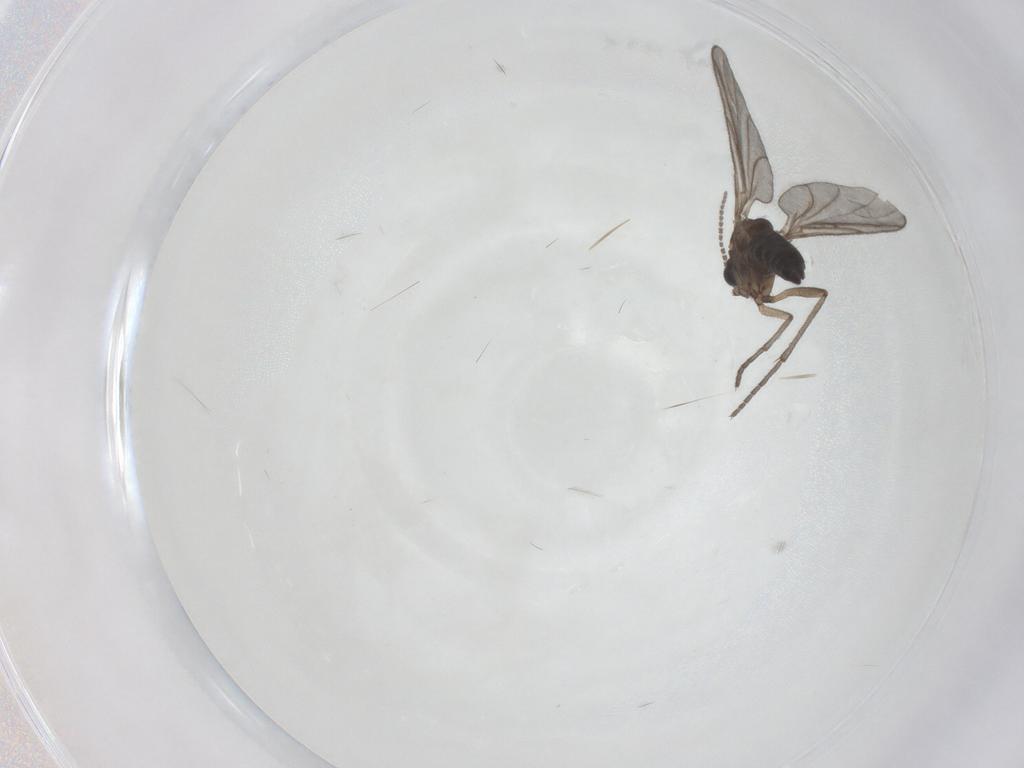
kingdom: Animalia
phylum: Arthropoda
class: Insecta
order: Diptera
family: Sciaridae
